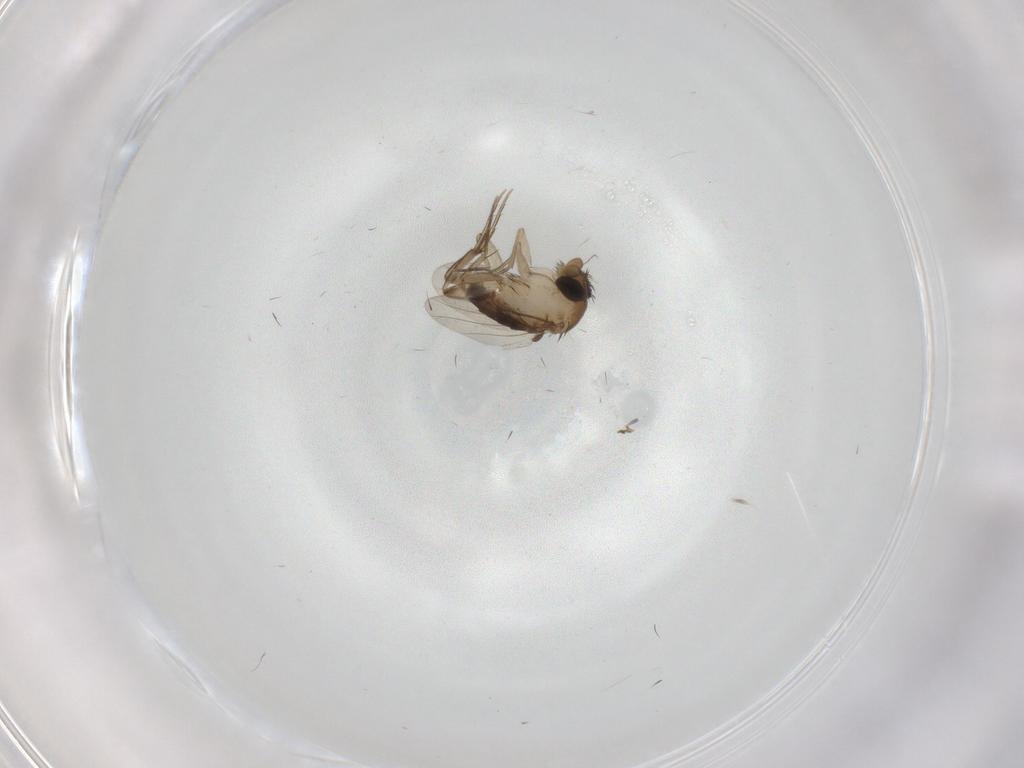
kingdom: Animalia
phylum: Arthropoda
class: Insecta
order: Diptera
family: Phoridae
